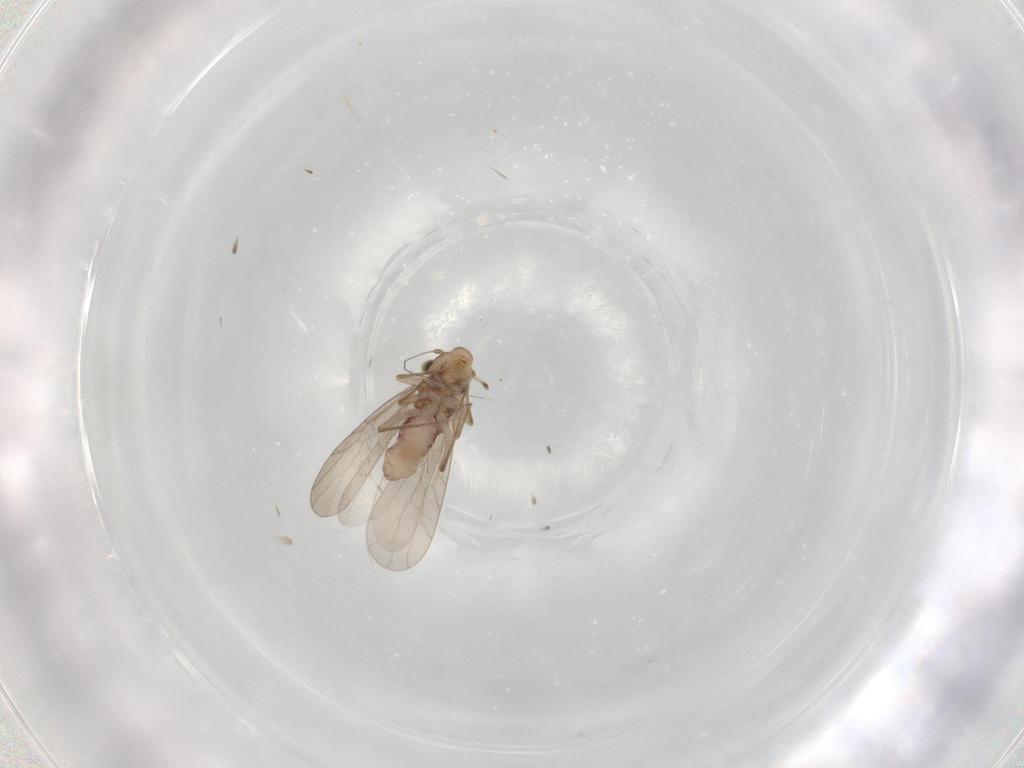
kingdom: Animalia
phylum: Arthropoda
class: Insecta
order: Psocodea
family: Lepidopsocidae
